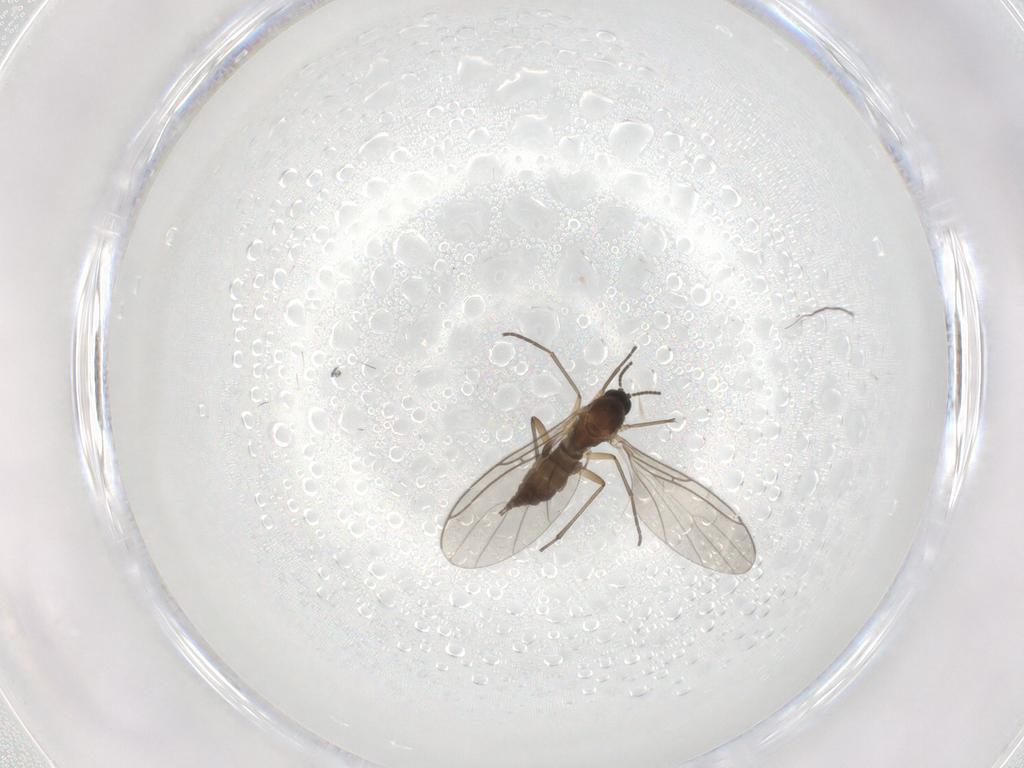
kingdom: Animalia
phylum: Arthropoda
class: Insecta
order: Diptera
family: Sciaridae
